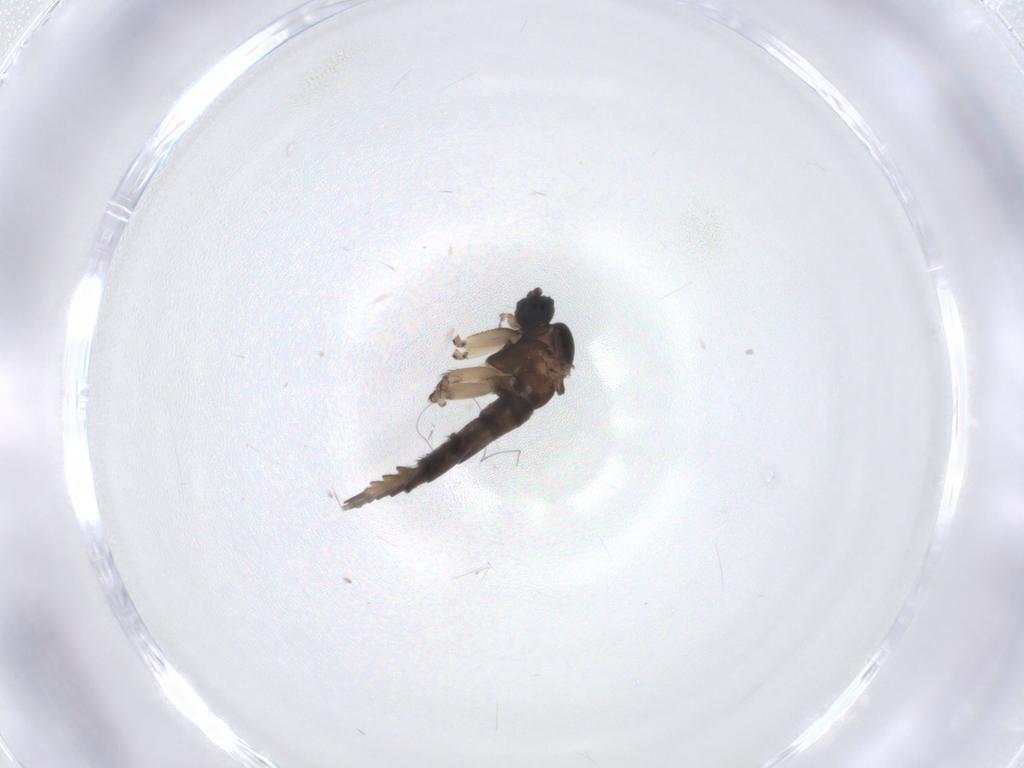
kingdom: Animalia
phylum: Arthropoda
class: Insecta
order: Diptera
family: Sciaridae
